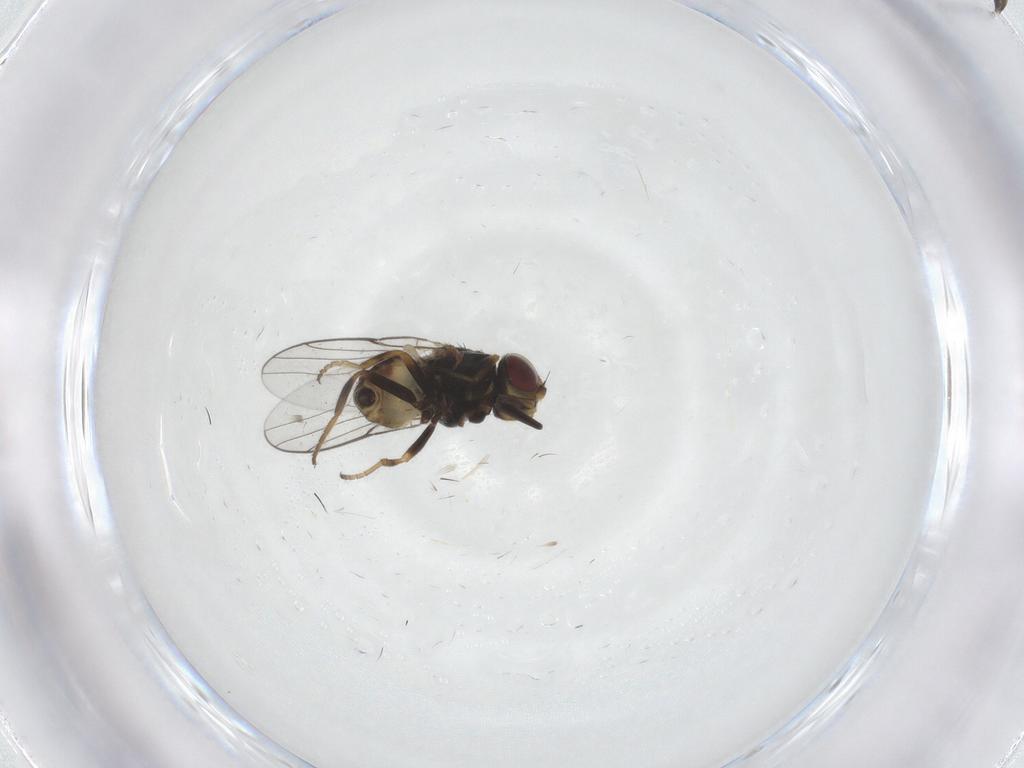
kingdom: Animalia
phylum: Arthropoda
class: Insecta
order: Diptera
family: Chloropidae
